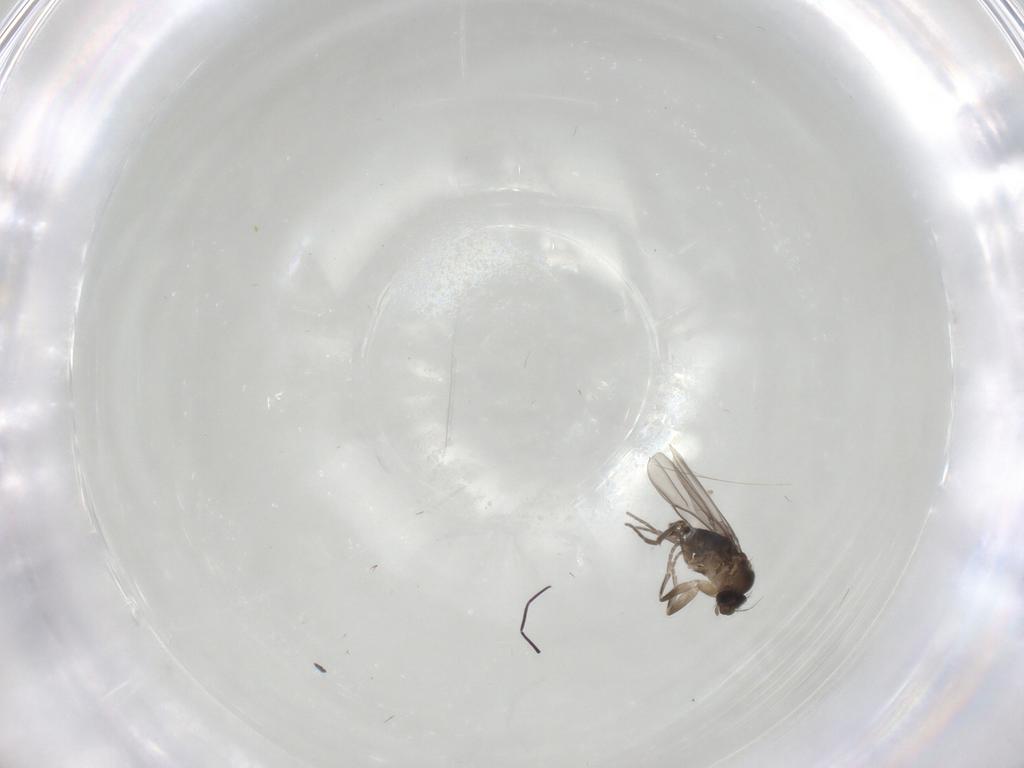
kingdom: Animalia
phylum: Arthropoda
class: Insecta
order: Diptera
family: Phoridae
